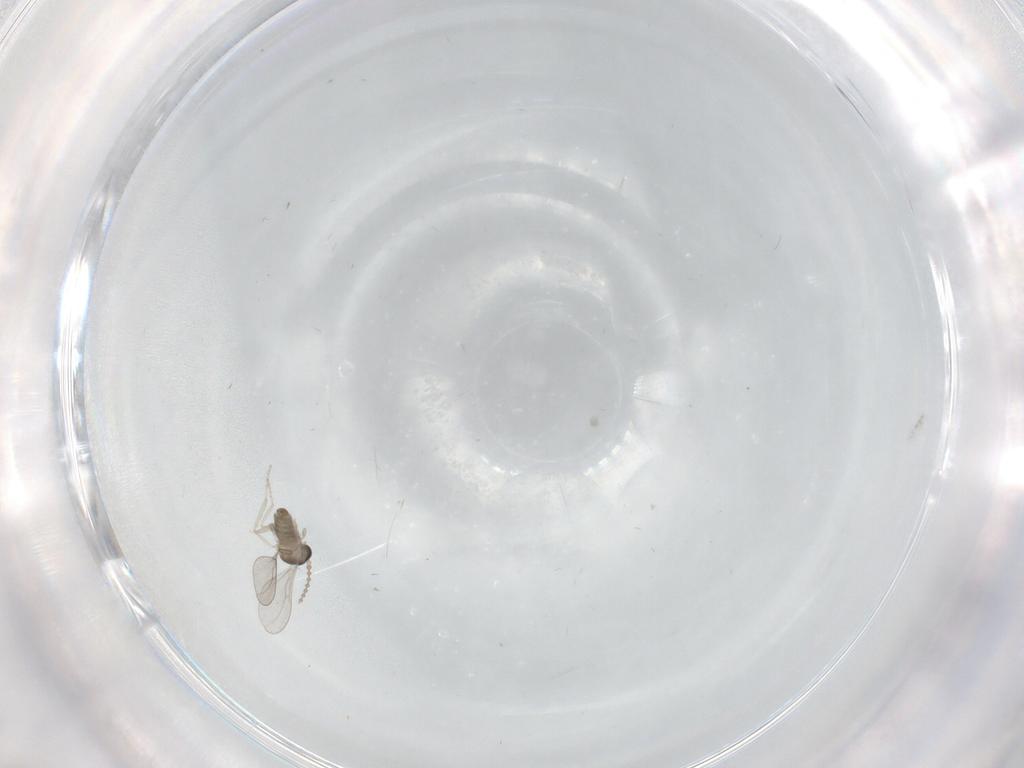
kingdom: Animalia
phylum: Arthropoda
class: Insecta
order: Diptera
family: Cecidomyiidae
